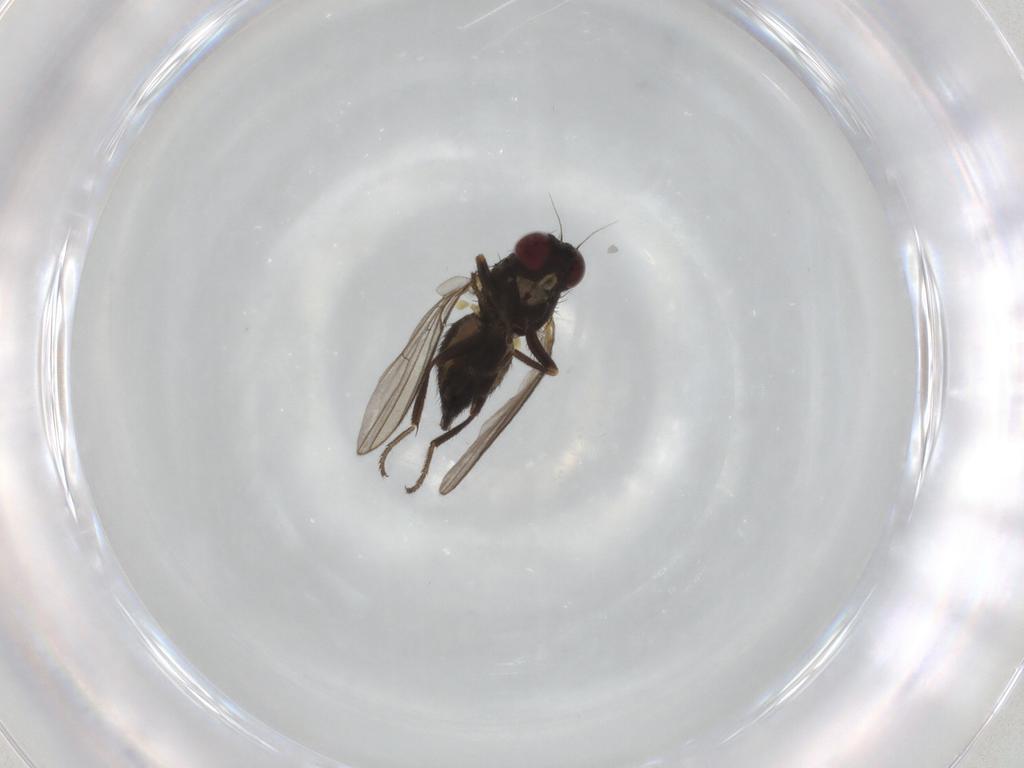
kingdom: Animalia
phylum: Arthropoda
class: Insecta
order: Diptera
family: Agromyzidae
